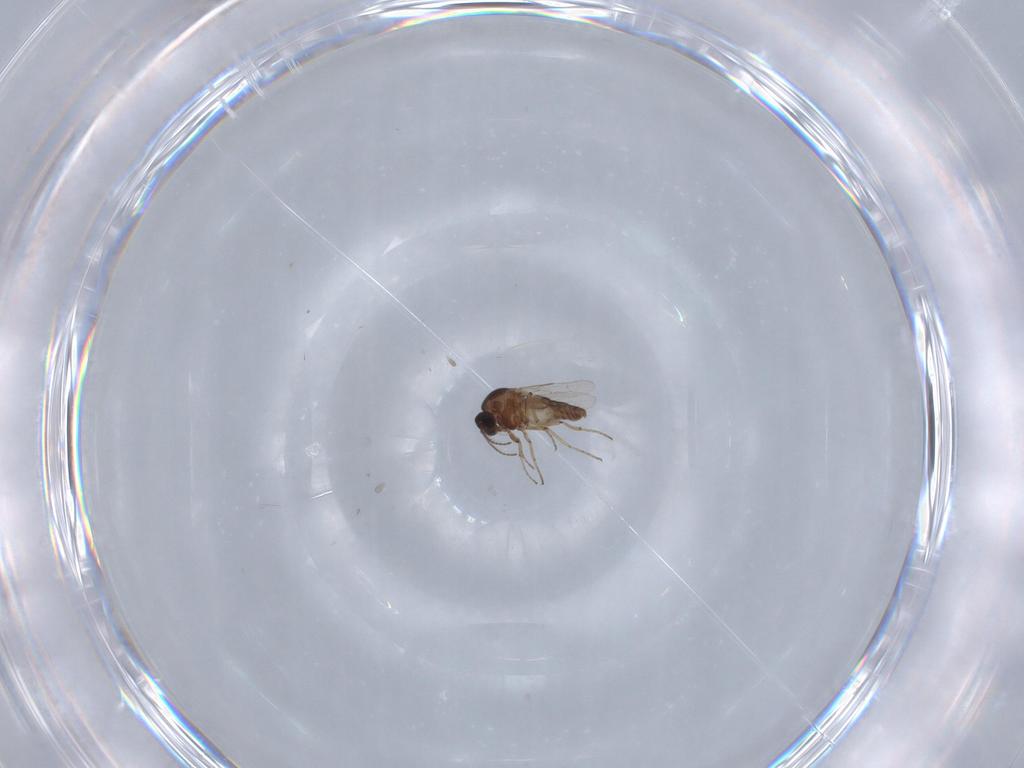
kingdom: Animalia
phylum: Arthropoda
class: Insecta
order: Diptera
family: Ceratopogonidae
